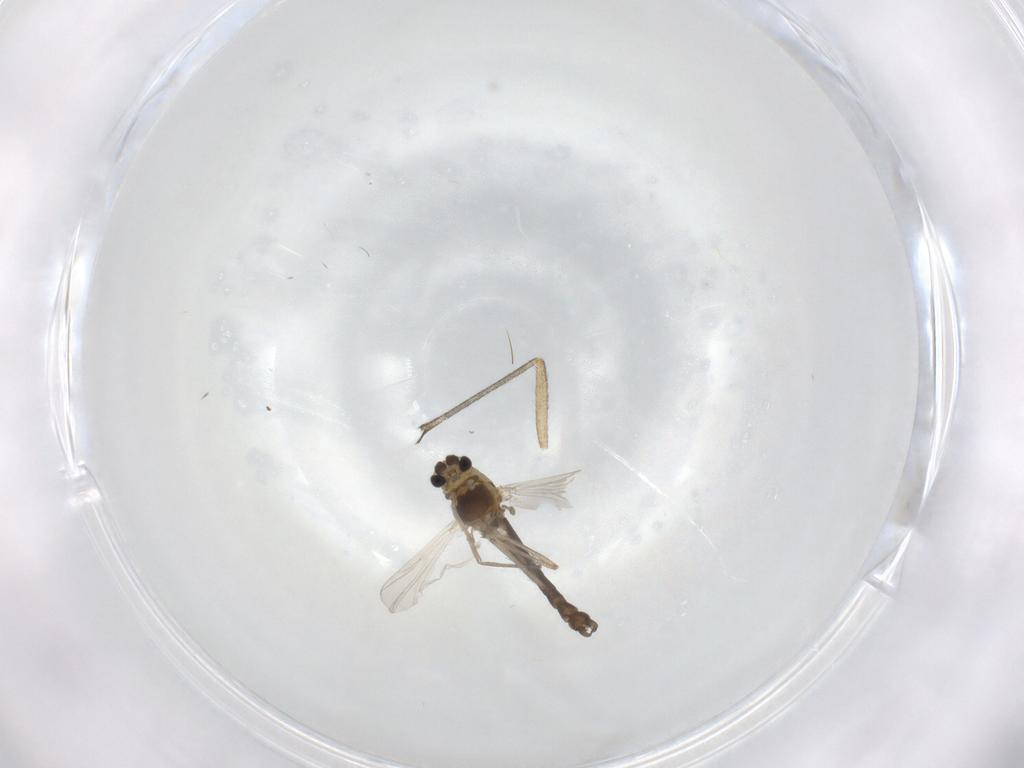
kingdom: Animalia
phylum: Arthropoda
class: Insecta
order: Diptera
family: Chironomidae
